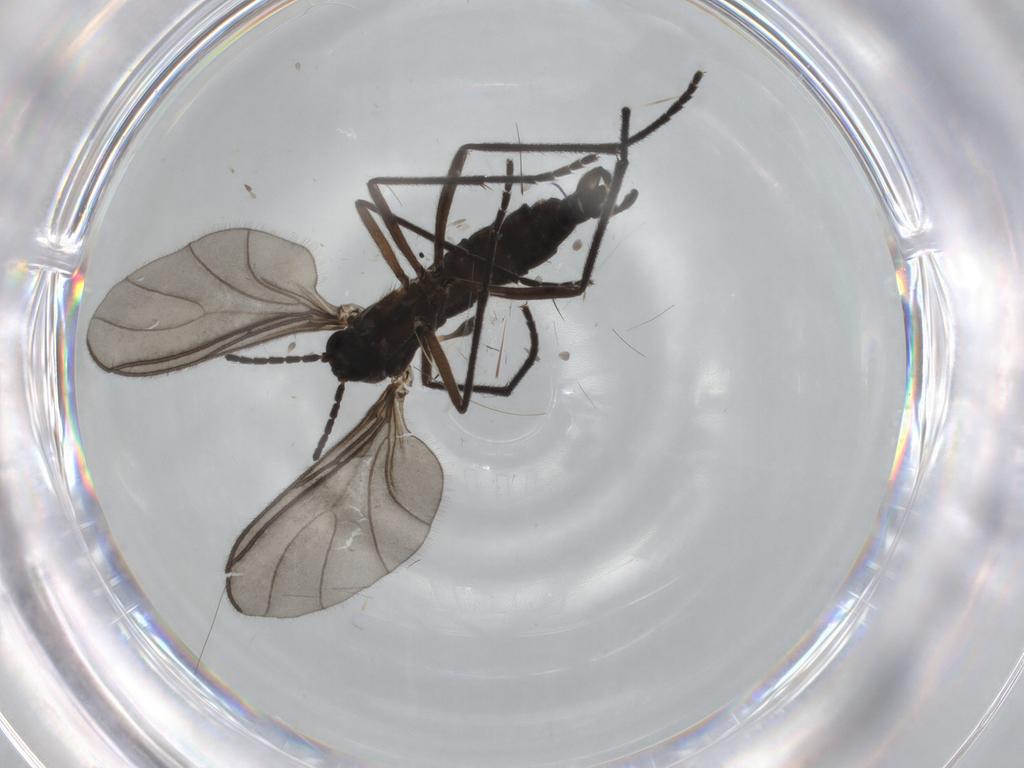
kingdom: Animalia
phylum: Arthropoda
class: Insecta
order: Diptera
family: Sciaridae
